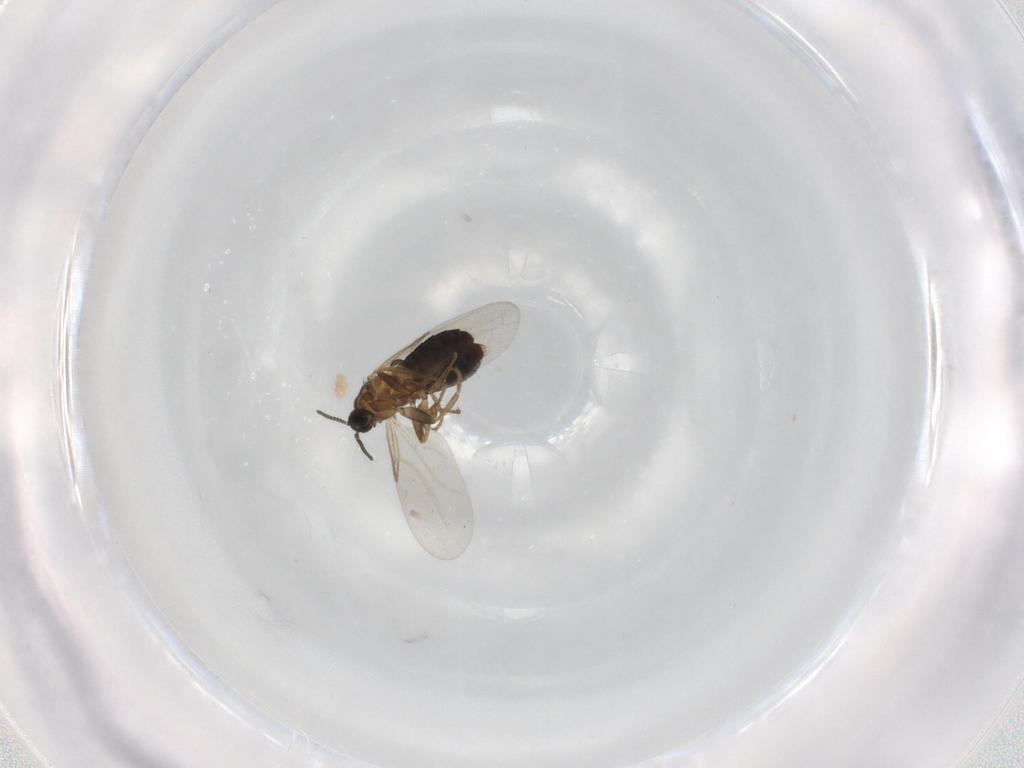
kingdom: Animalia
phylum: Arthropoda
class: Insecta
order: Diptera
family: Scatopsidae
